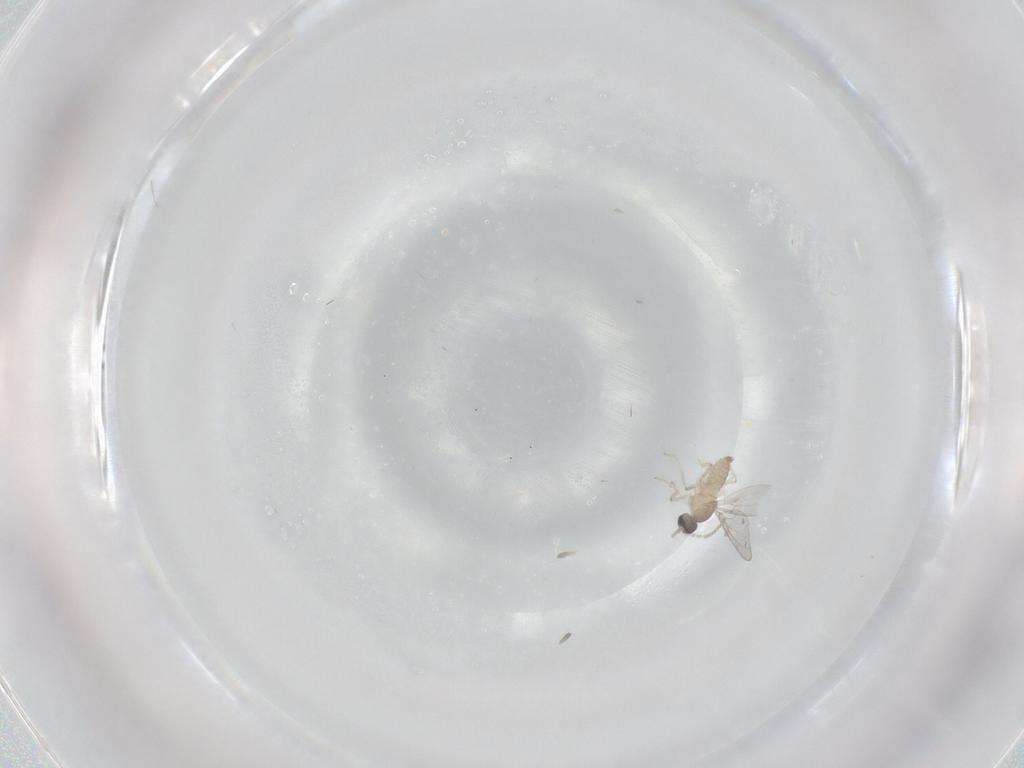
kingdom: Animalia
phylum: Arthropoda
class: Insecta
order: Diptera
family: Cecidomyiidae
